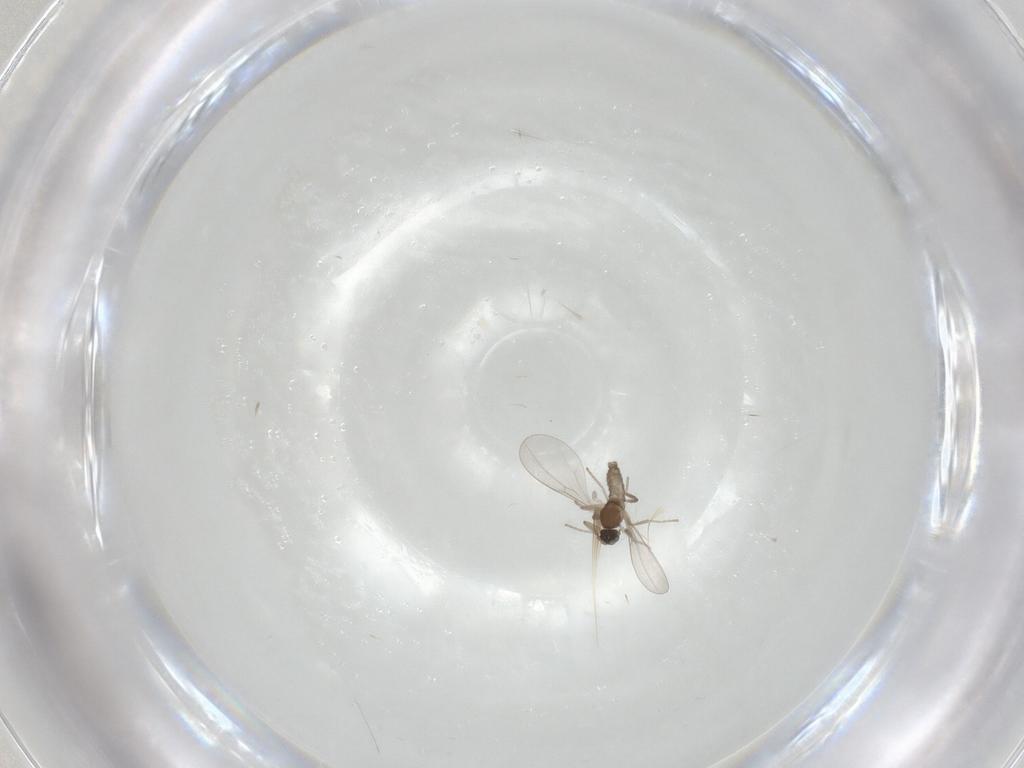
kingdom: Animalia
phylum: Arthropoda
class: Insecta
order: Diptera
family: Cecidomyiidae
